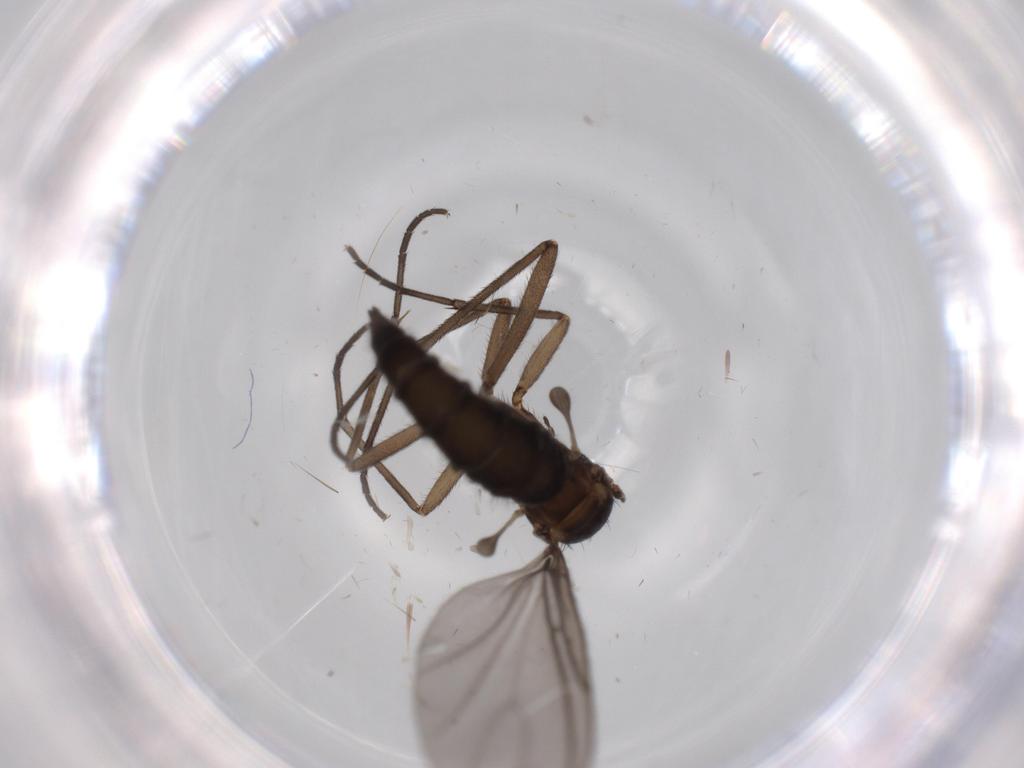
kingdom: Animalia
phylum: Arthropoda
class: Insecta
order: Diptera
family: Sciaridae
